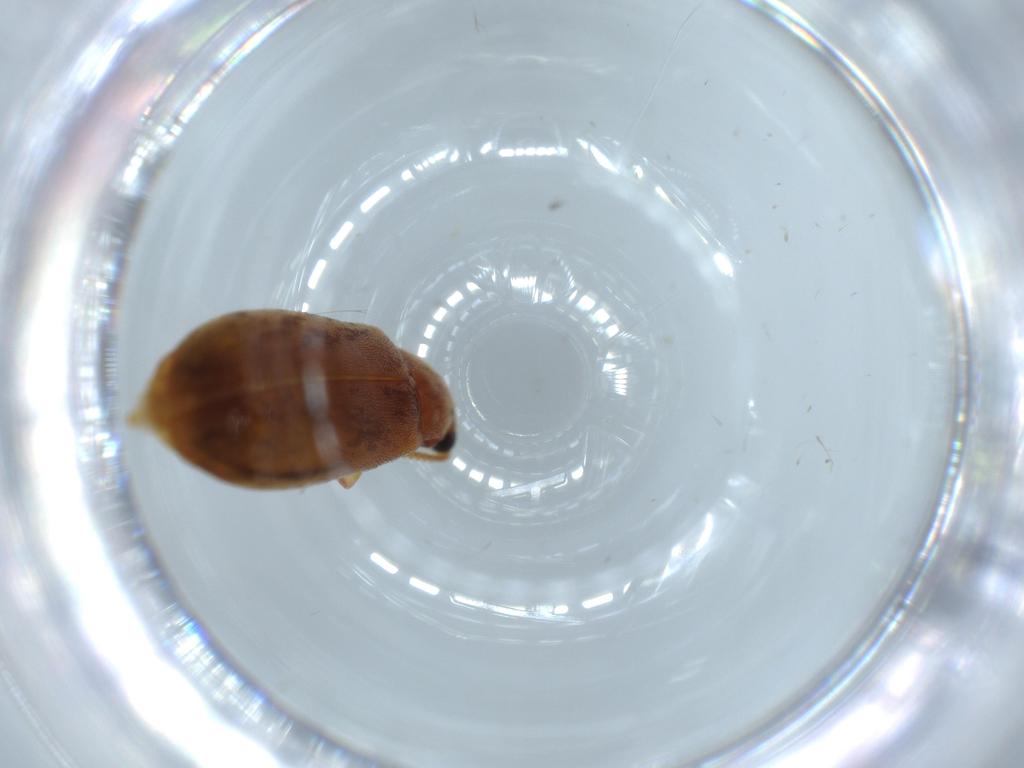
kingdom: Animalia
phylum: Arthropoda
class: Insecta
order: Coleoptera
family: Mycteridae
